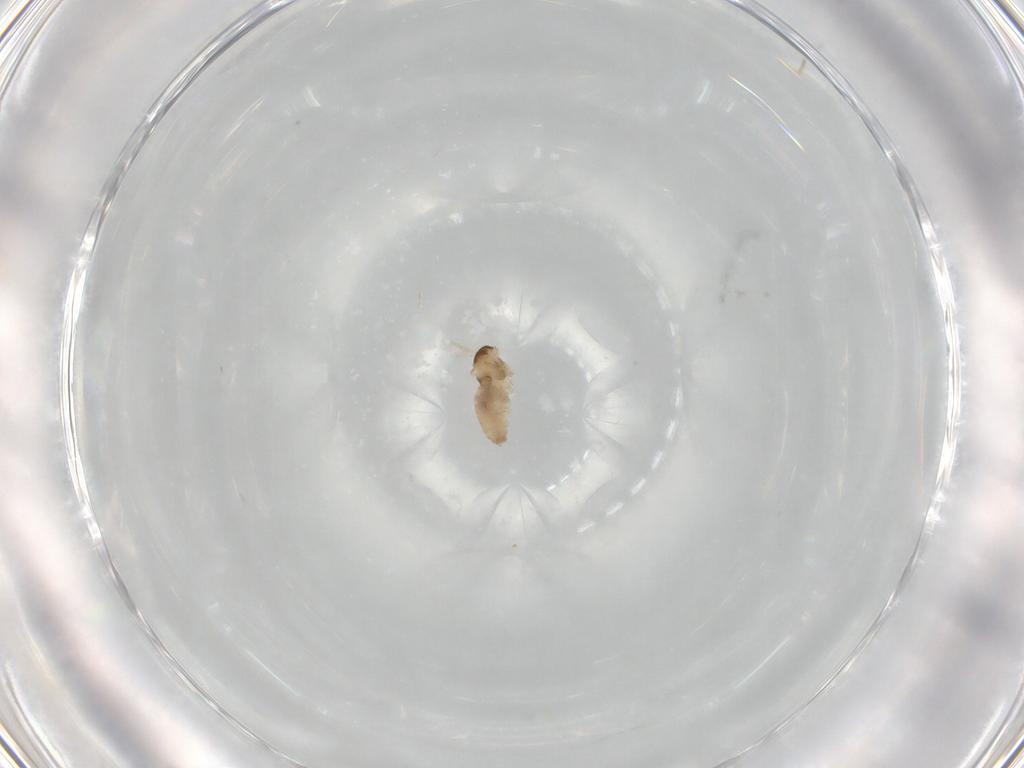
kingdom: Animalia
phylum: Arthropoda
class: Insecta
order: Diptera
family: Cecidomyiidae
